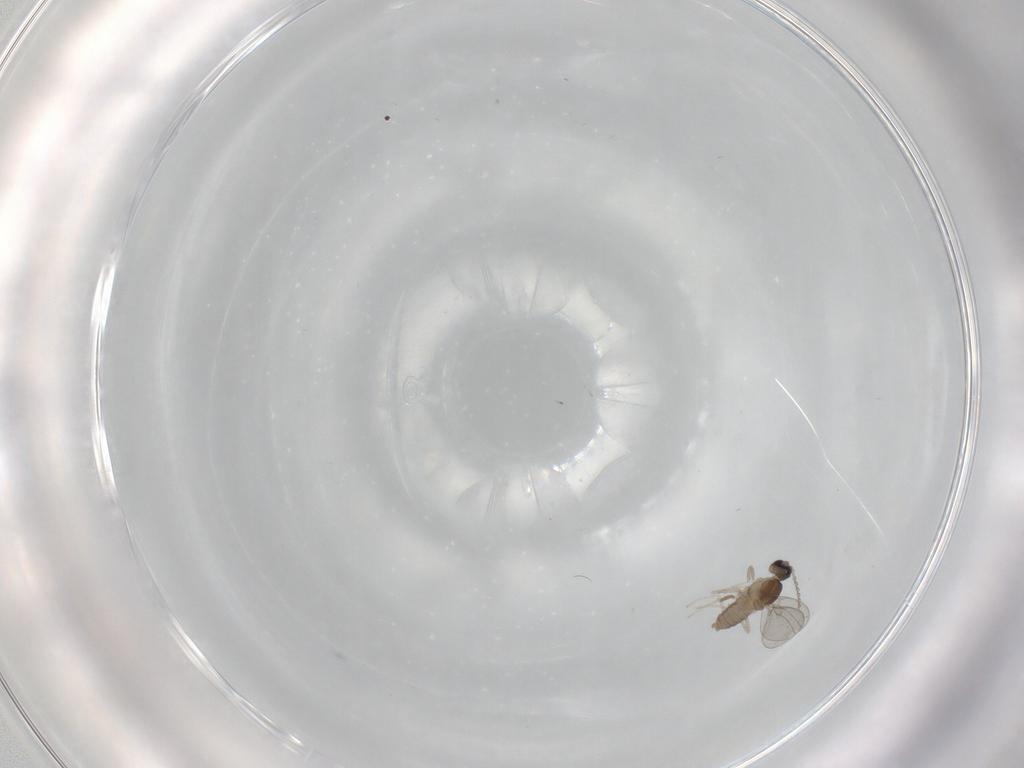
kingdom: Animalia
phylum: Arthropoda
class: Insecta
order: Diptera
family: Cecidomyiidae
